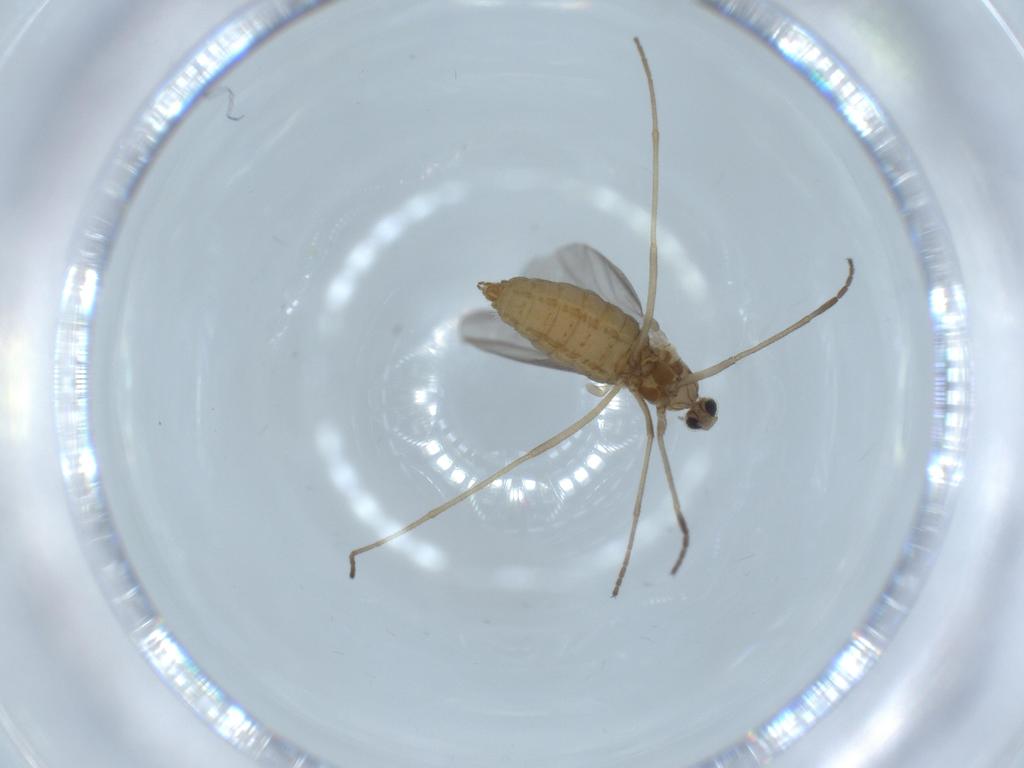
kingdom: Animalia
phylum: Arthropoda
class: Insecta
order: Diptera
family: Cecidomyiidae
